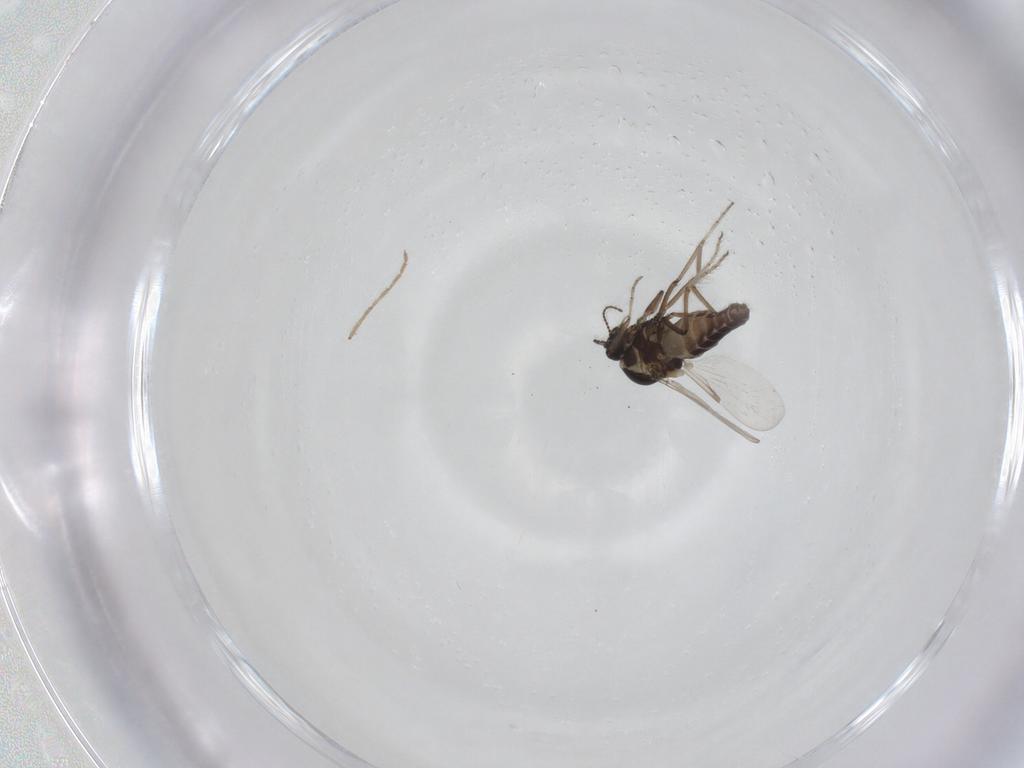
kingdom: Animalia
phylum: Arthropoda
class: Insecta
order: Diptera
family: Ceratopogonidae
